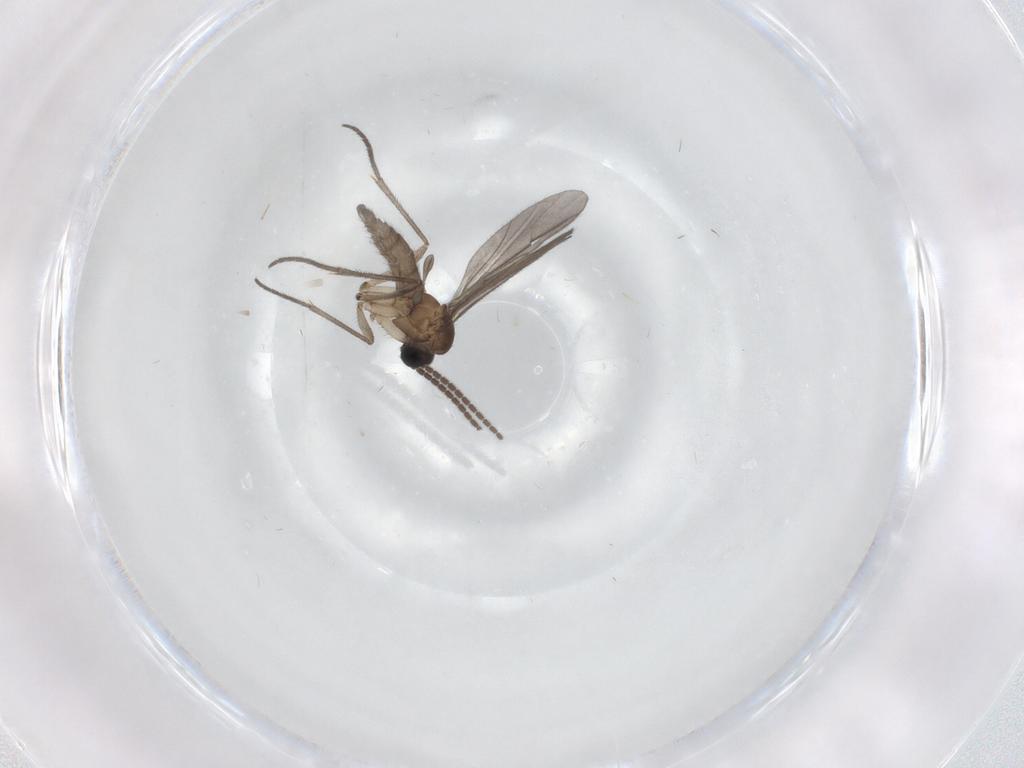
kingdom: Animalia
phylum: Arthropoda
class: Insecta
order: Diptera
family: Sciaridae
